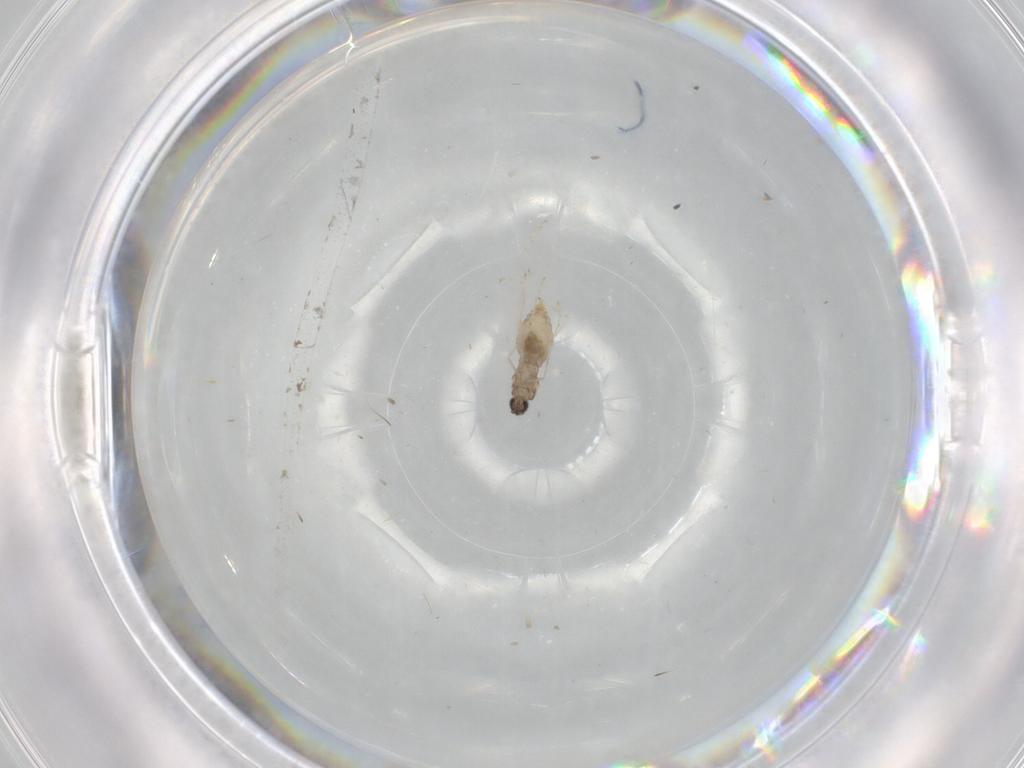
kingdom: Animalia
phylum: Arthropoda
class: Insecta
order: Diptera
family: Cecidomyiidae
